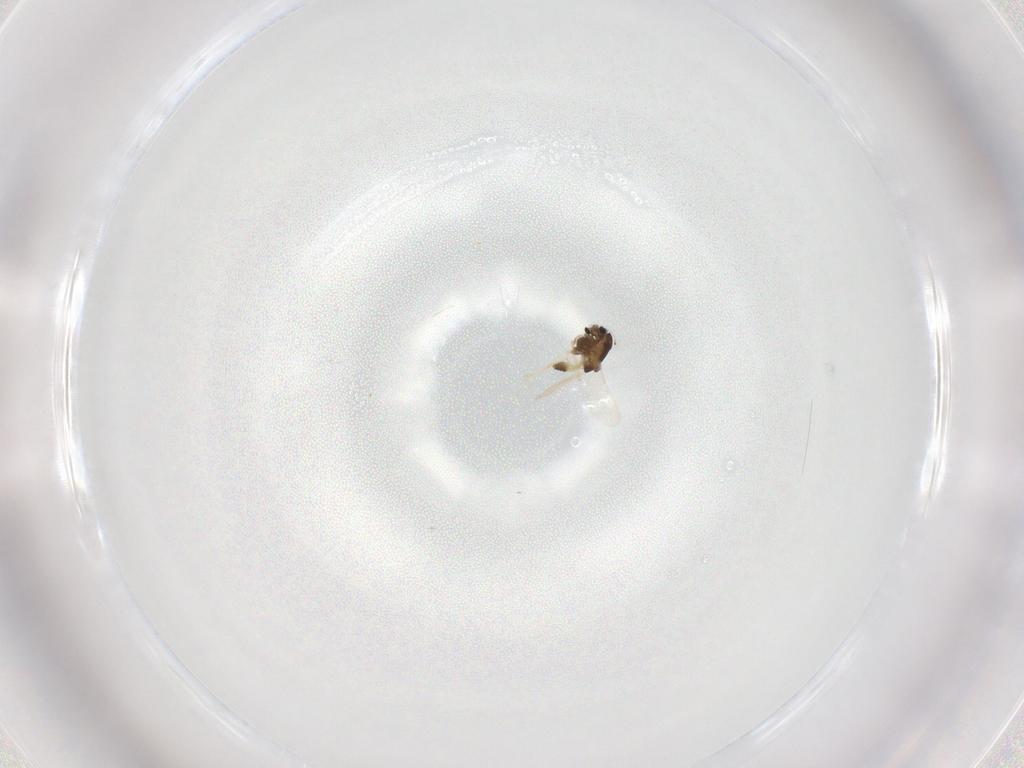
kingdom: Animalia
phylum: Arthropoda
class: Insecta
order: Diptera
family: Chironomidae
